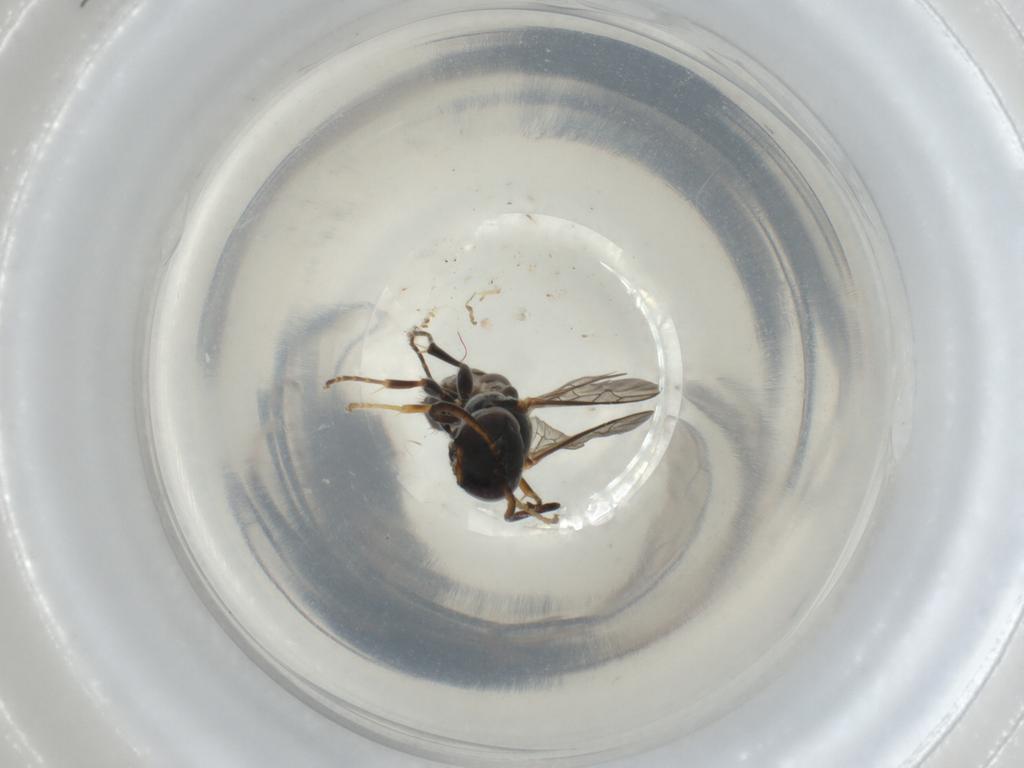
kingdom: Animalia
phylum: Arthropoda
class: Insecta
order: Hymenoptera
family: Crabronidae
